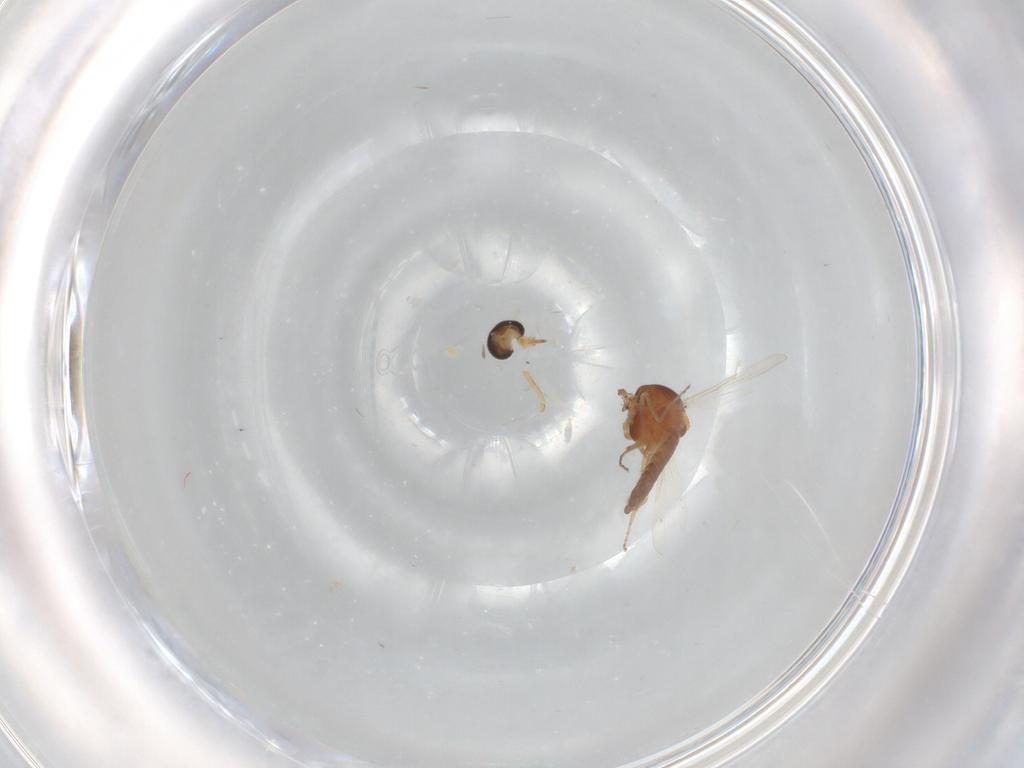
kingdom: Animalia
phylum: Arthropoda
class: Insecta
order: Diptera
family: Ceratopogonidae
